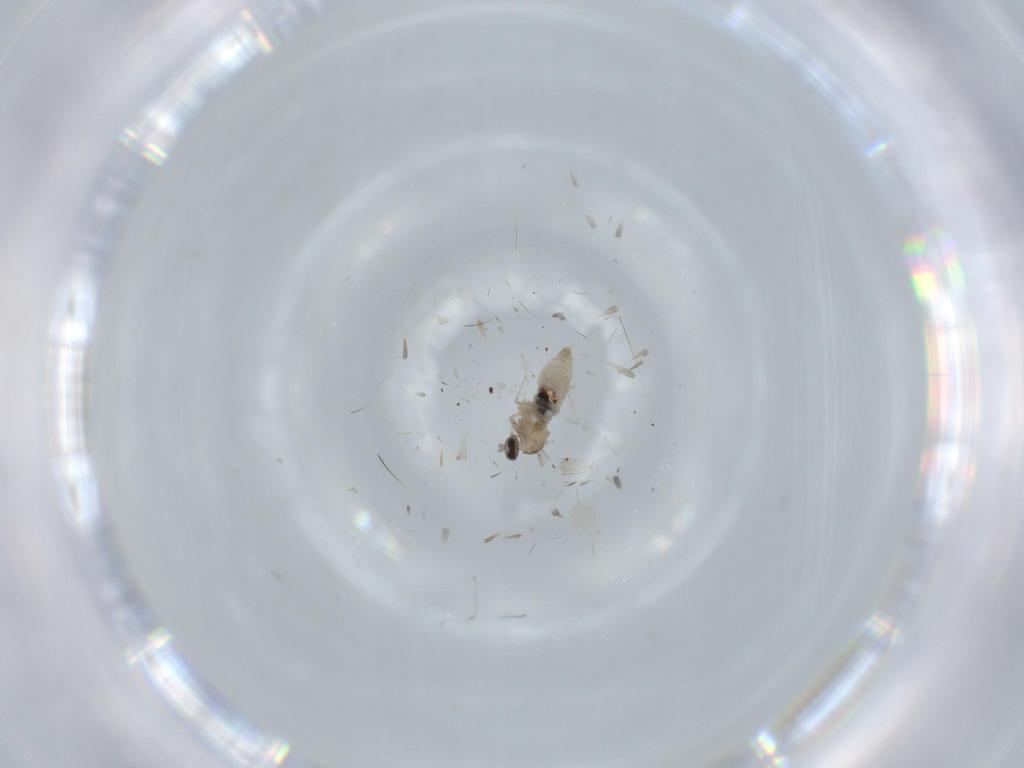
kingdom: Animalia
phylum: Arthropoda
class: Insecta
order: Diptera
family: Cecidomyiidae
